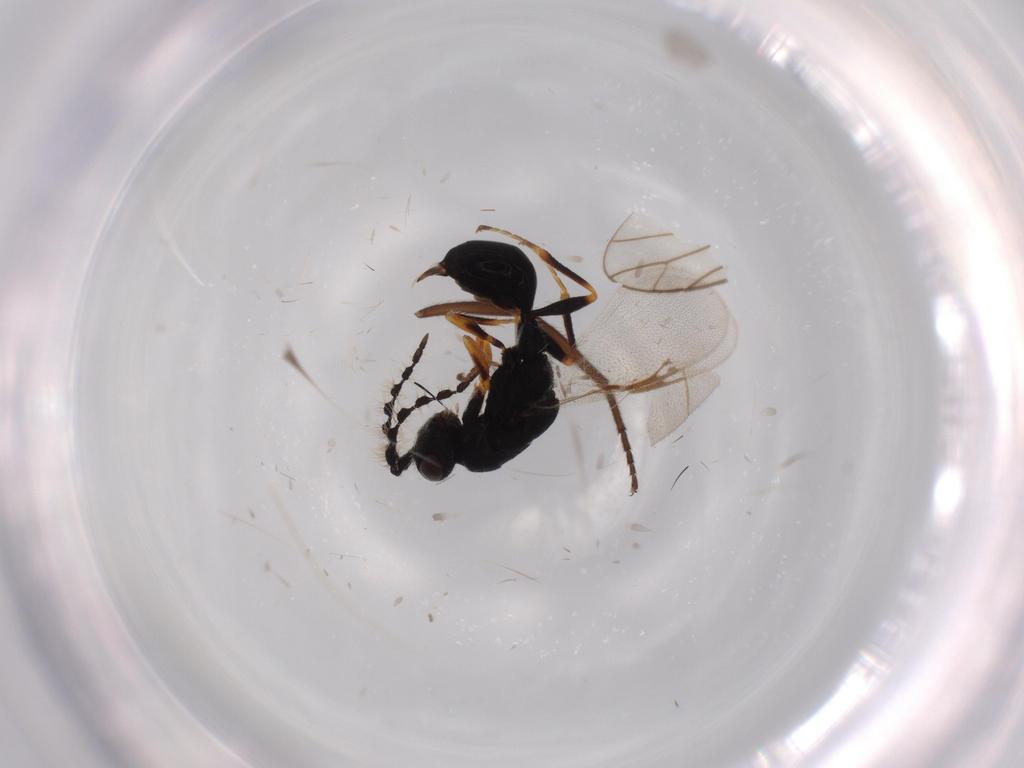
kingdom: Animalia
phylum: Arthropoda
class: Insecta
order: Hymenoptera
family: Eurytomidae
